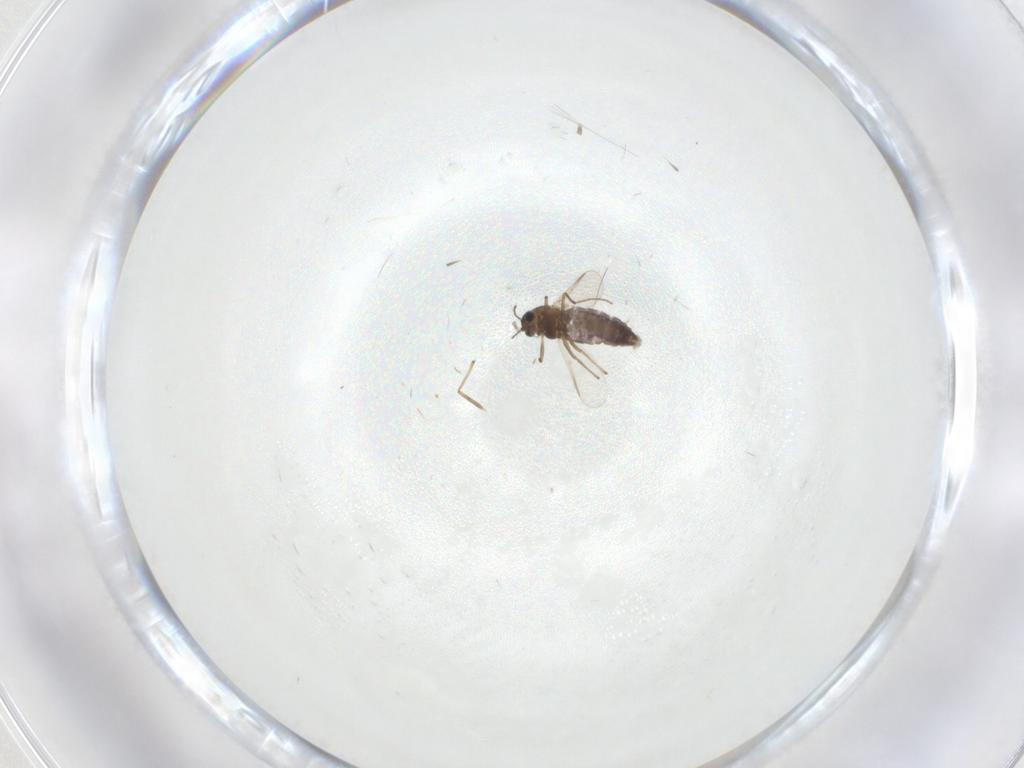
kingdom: Animalia
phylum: Arthropoda
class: Insecta
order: Diptera
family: Chironomidae
